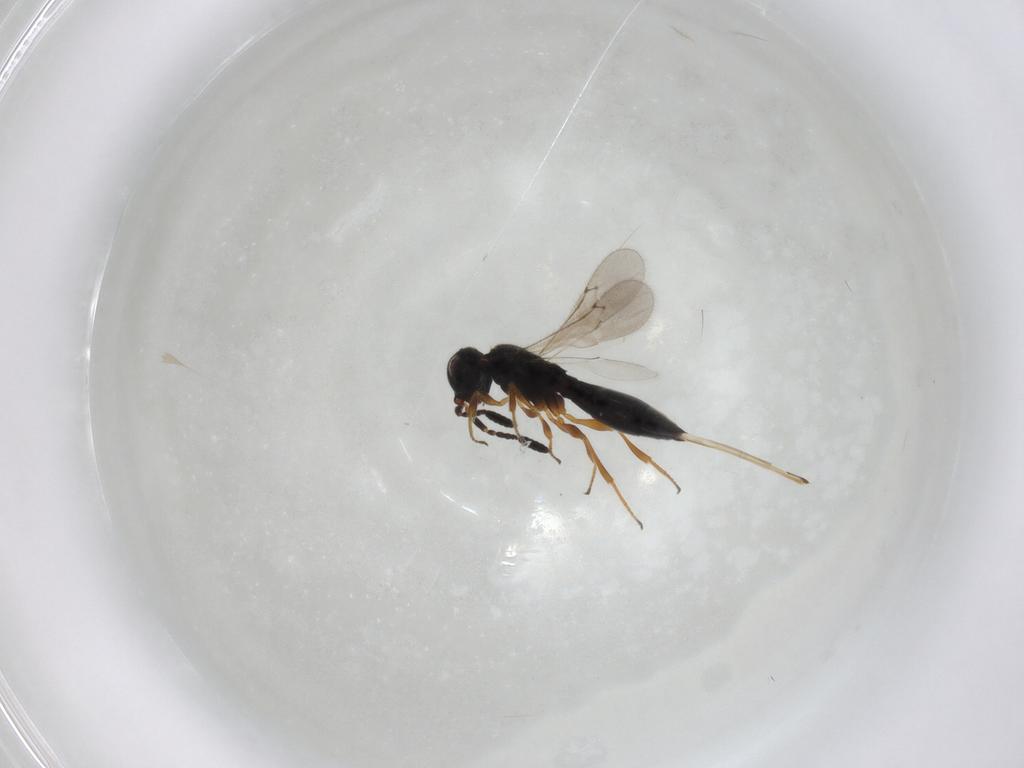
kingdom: Animalia
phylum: Arthropoda
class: Insecta
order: Hymenoptera
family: Scelionidae
